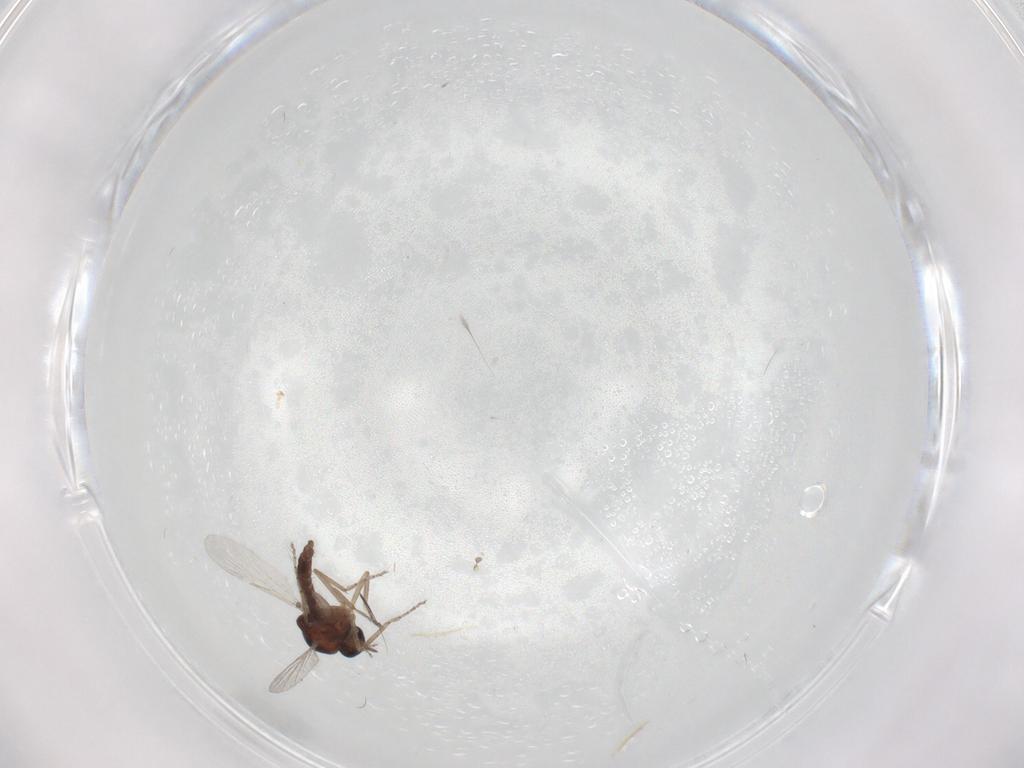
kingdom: Animalia
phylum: Arthropoda
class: Insecta
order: Diptera
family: Ceratopogonidae
